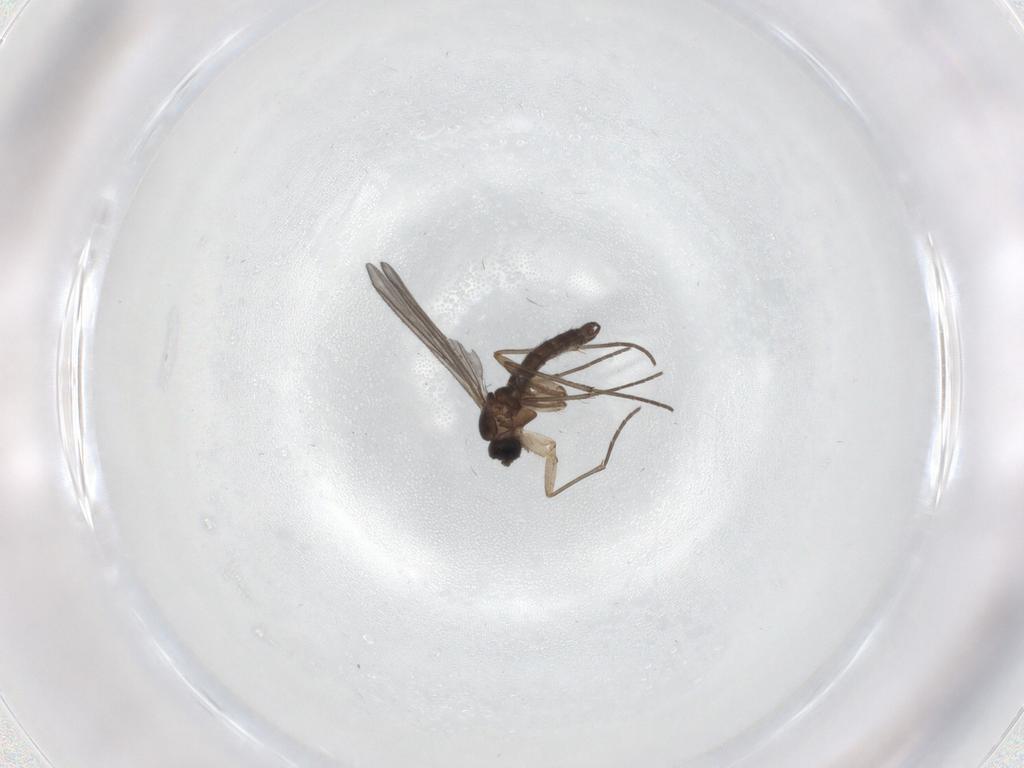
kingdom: Animalia
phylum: Arthropoda
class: Insecta
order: Diptera
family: Sciaridae
